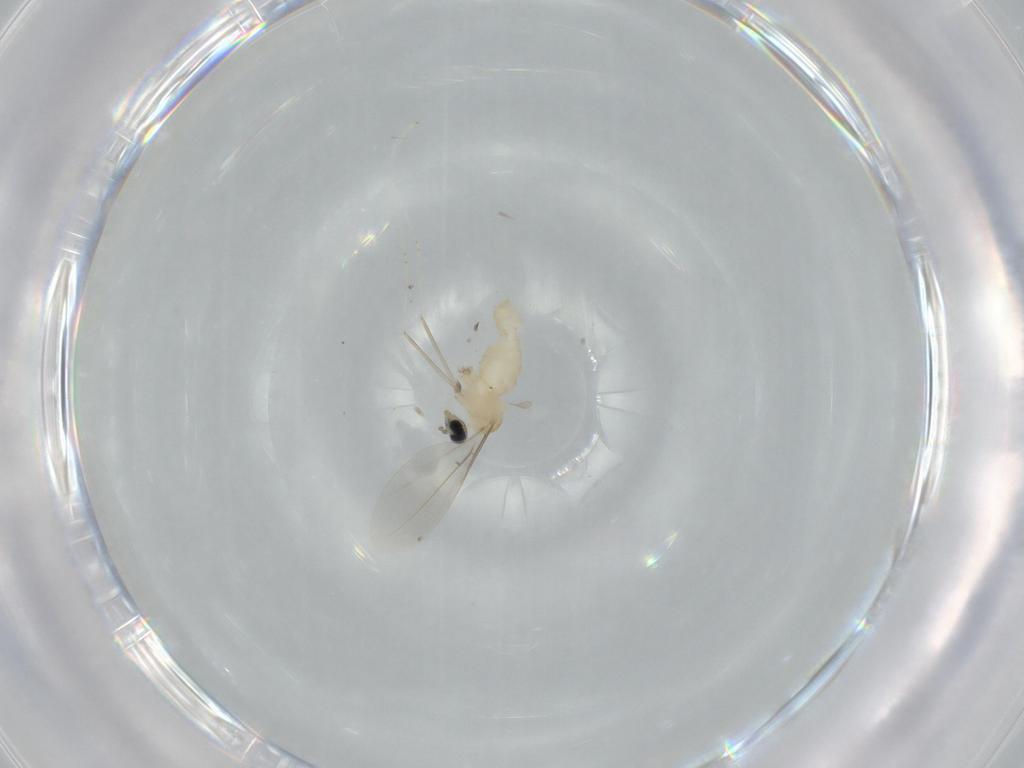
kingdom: Animalia
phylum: Arthropoda
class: Insecta
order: Diptera
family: Cecidomyiidae
